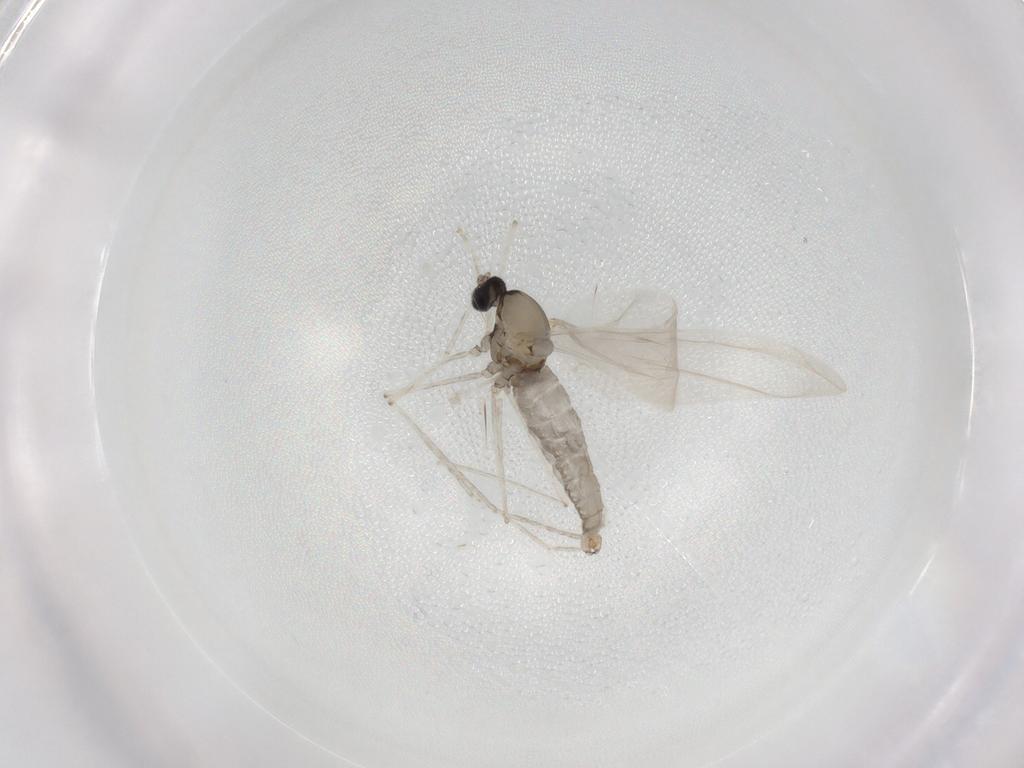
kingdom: Animalia
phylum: Arthropoda
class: Insecta
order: Diptera
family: Cecidomyiidae
